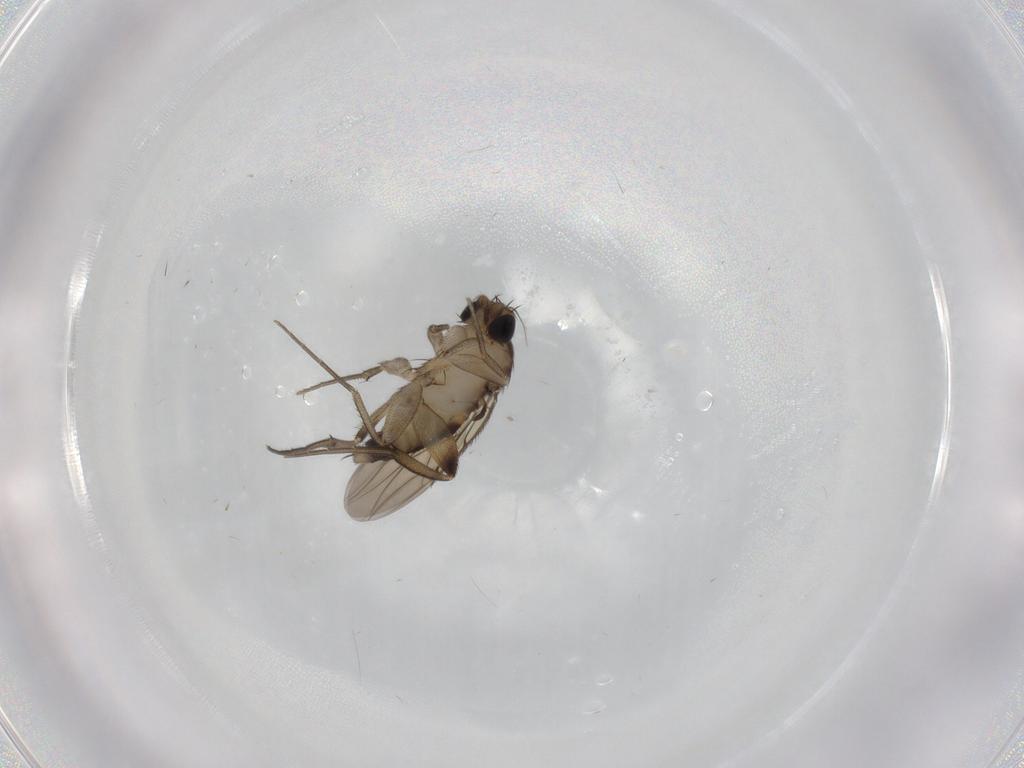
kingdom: Animalia
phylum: Arthropoda
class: Insecta
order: Diptera
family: Phoridae
